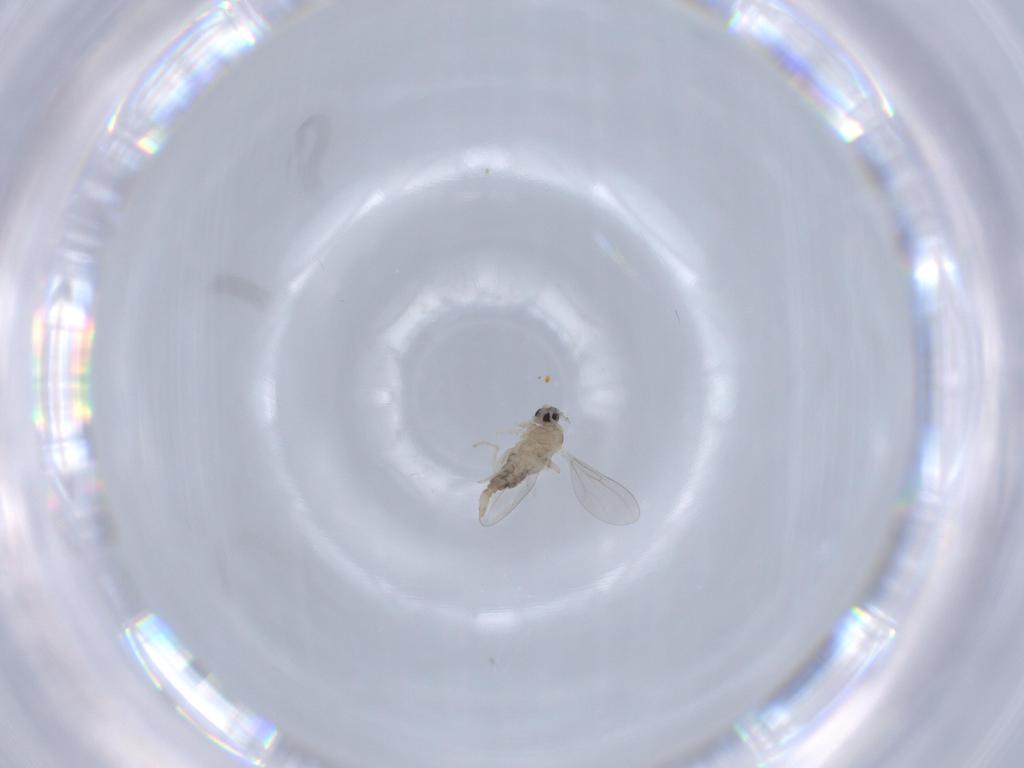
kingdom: Animalia
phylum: Arthropoda
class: Insecta
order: Diptera
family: Cecidomyiidae
